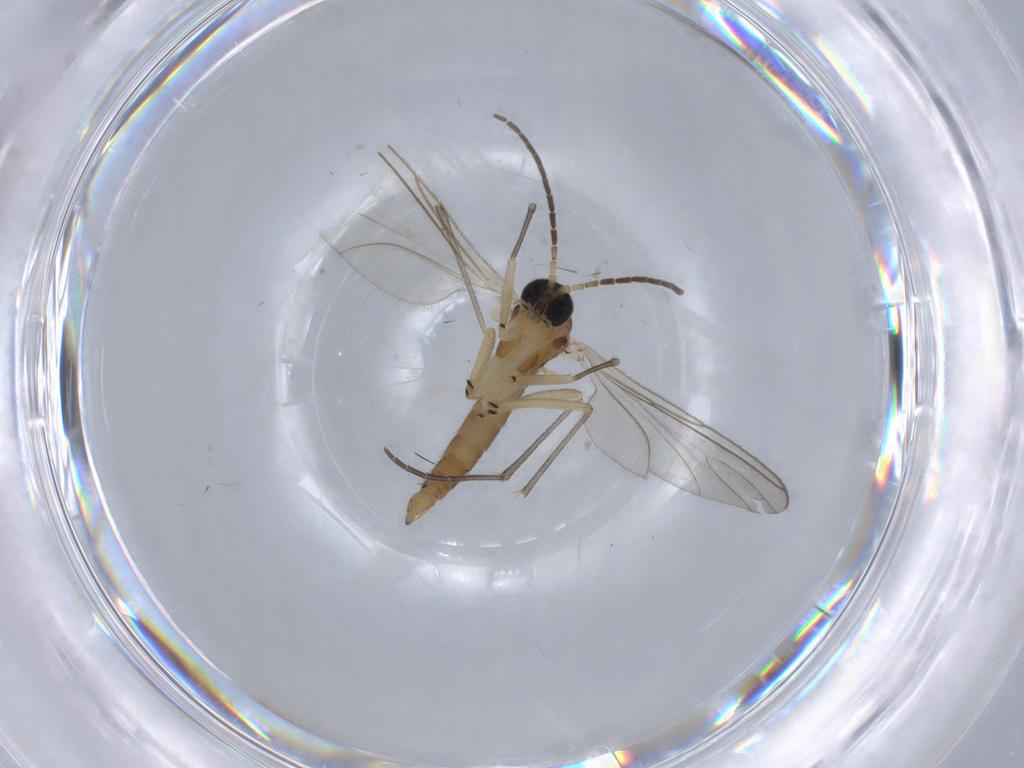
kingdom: Animalia
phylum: Arthropoda
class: Insecta
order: Diptera
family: Sciaridae
